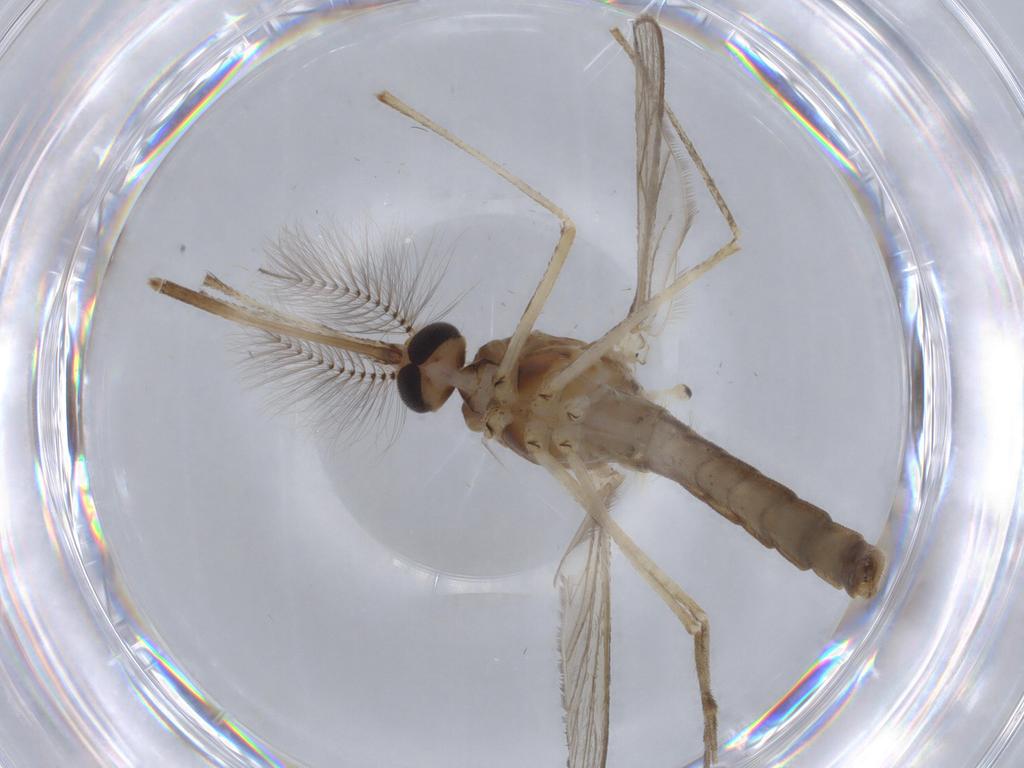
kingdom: Animalia
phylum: Arthropoda
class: Insecta
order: Diptera
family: Culicidae
